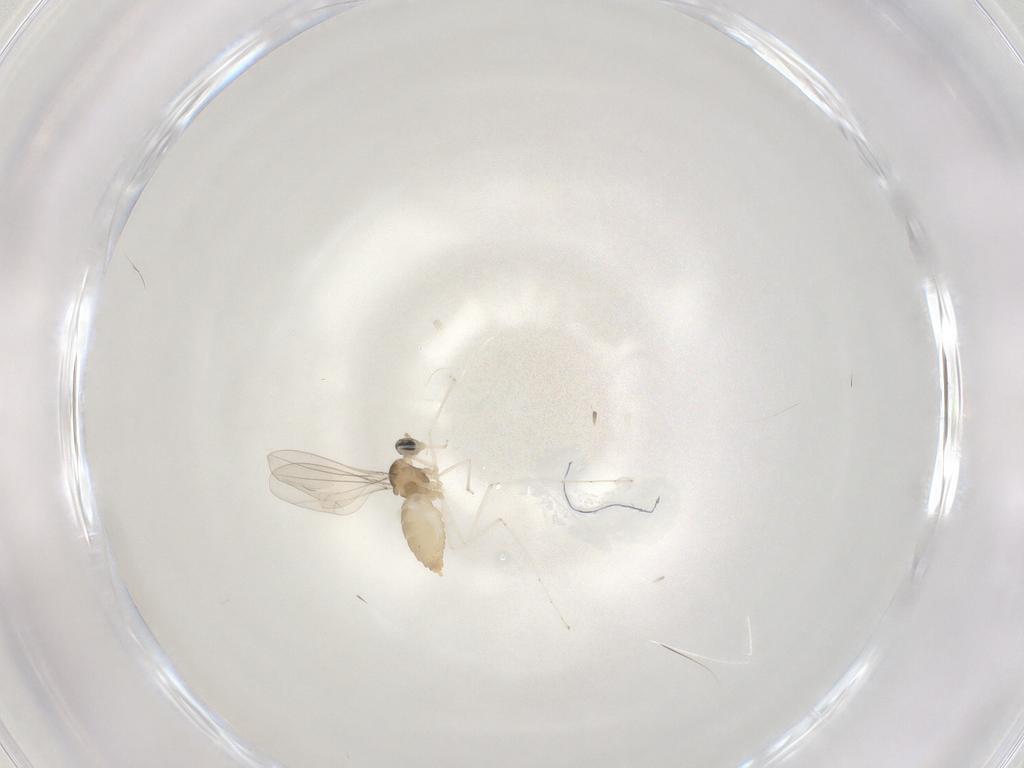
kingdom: Animalia
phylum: Arthropoda
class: Insecta
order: Diptera
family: Cecidomyiidae
